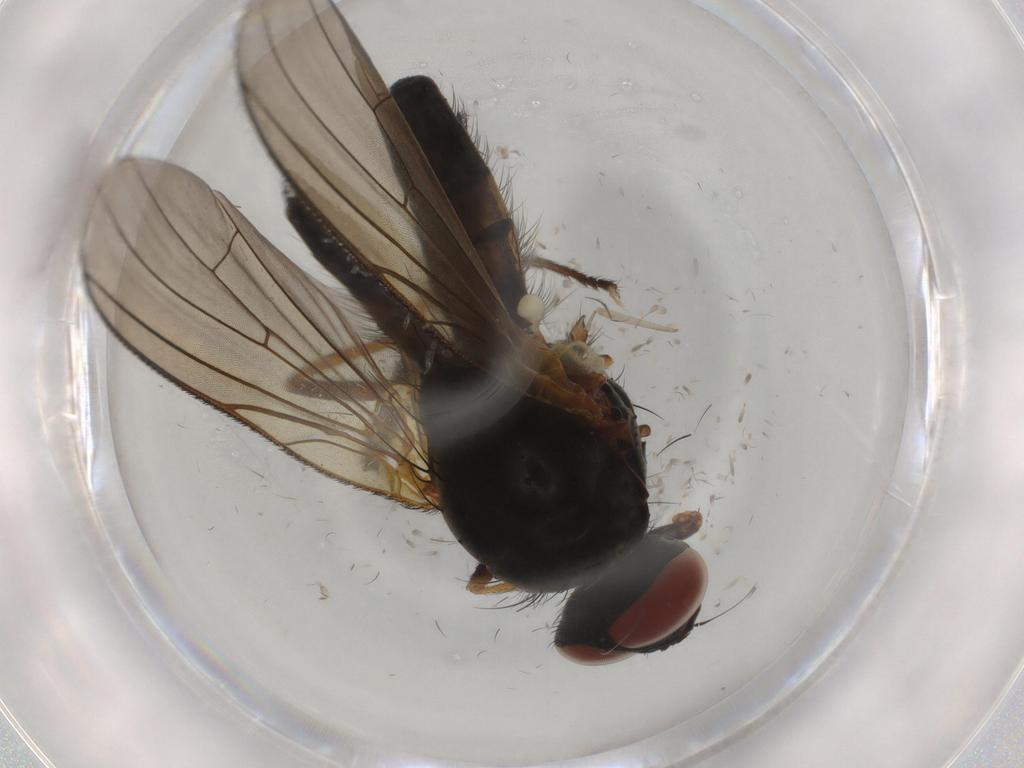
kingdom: Animalia
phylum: Arthropoda
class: Insecta
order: Diptera
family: Anthomyiidae
